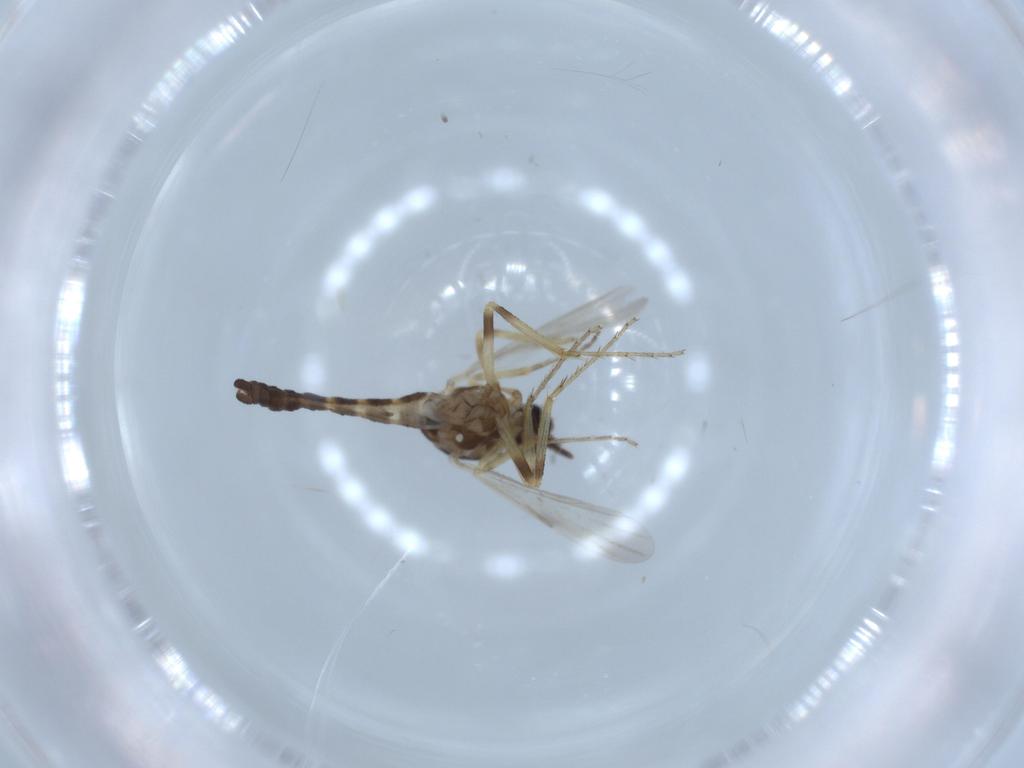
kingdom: Animalia
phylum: Arthropoda
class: Insecta
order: Diptera
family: Ceratopogonidae
